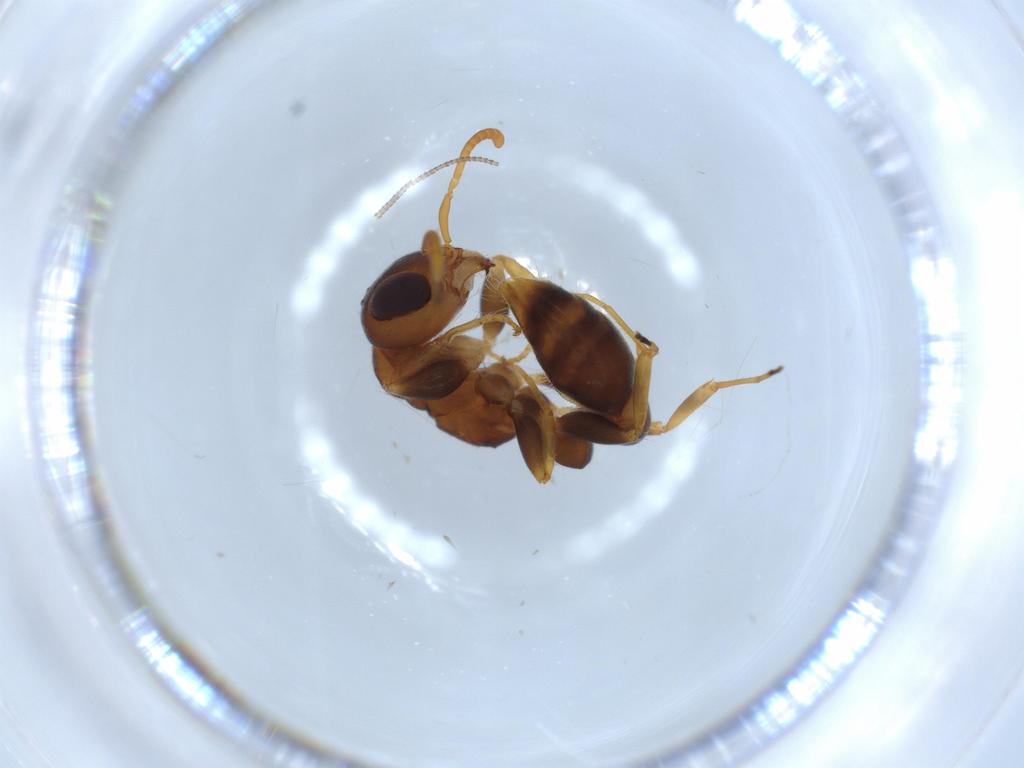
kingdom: Animalia
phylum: Arthropoda
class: Insecta
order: Hymenoptera
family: Formicidae
